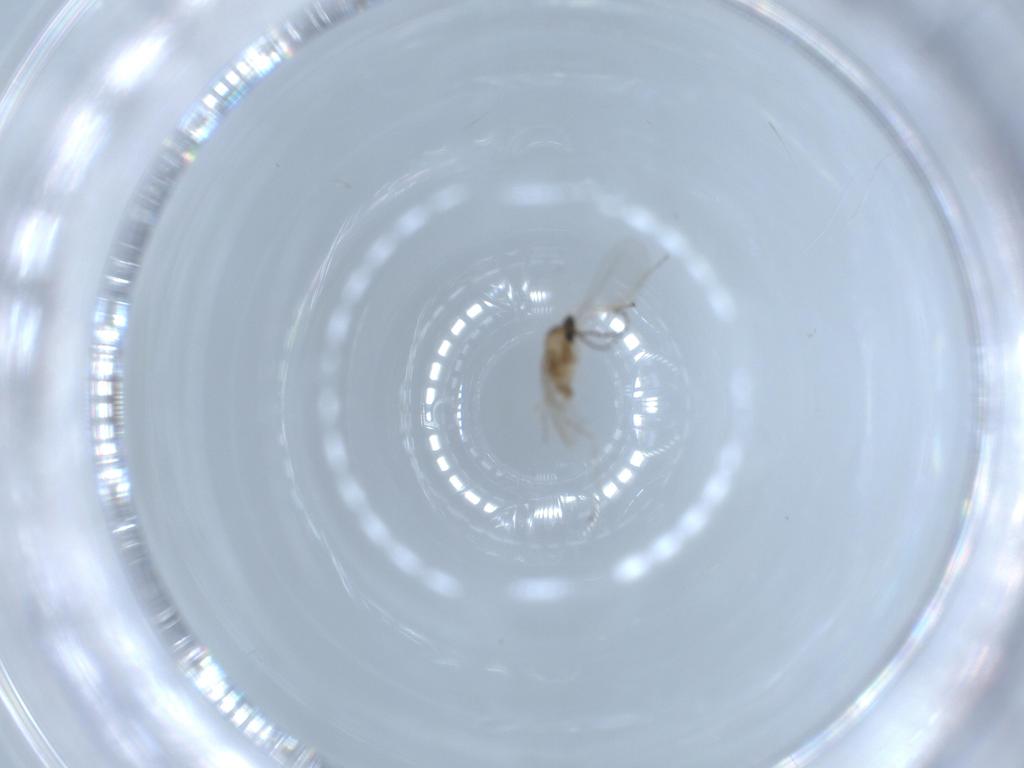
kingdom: Animalia
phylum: Arthropoda
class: Insecta
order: Diptera
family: Cecidomyiidae
